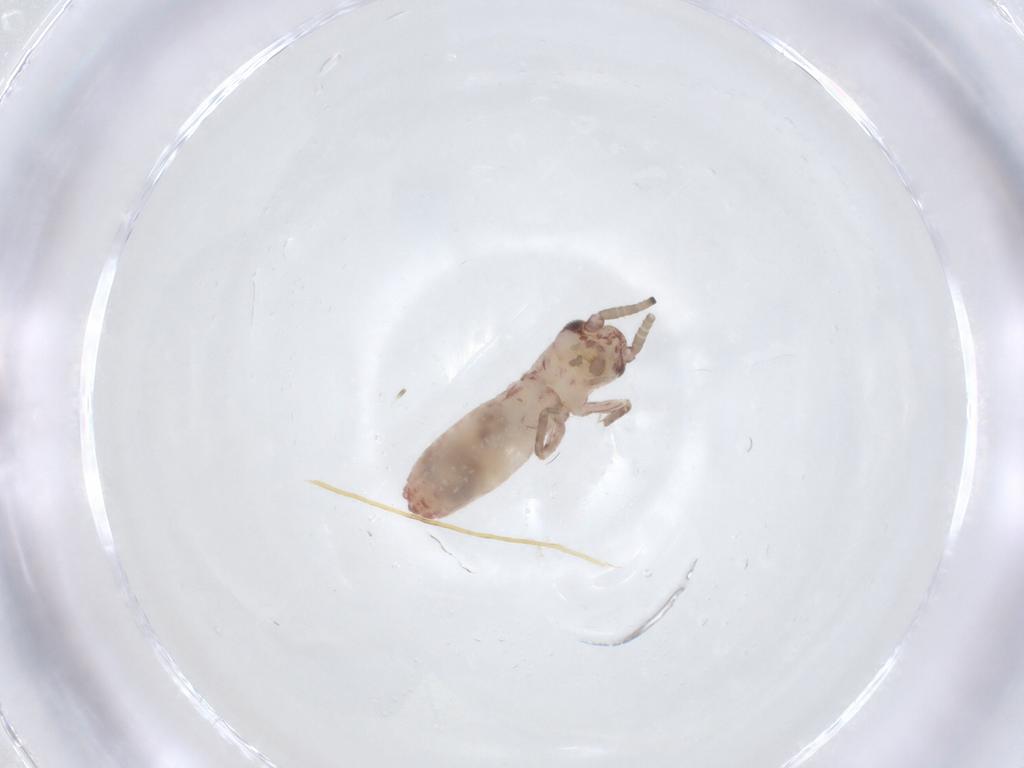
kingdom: Animalia
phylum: Arthropoda
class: Insecta
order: Orthoptera
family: Mogoplistidae
